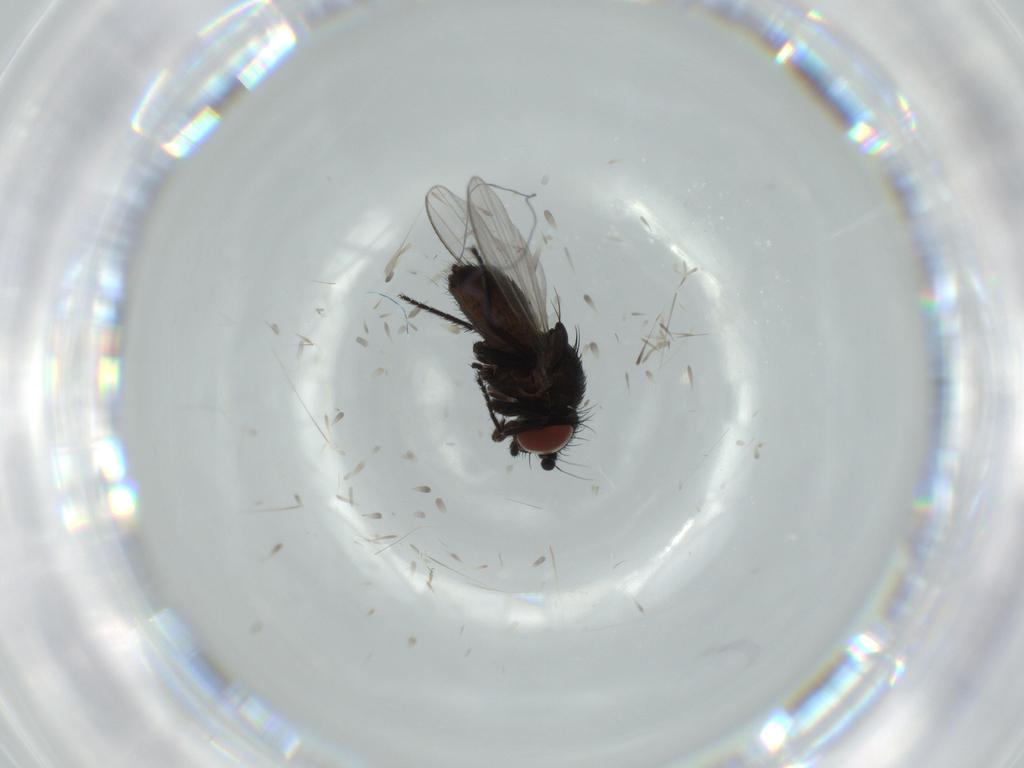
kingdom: Animalia
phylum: Arthropoda
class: Insecta
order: Diptera
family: Milichiidae
